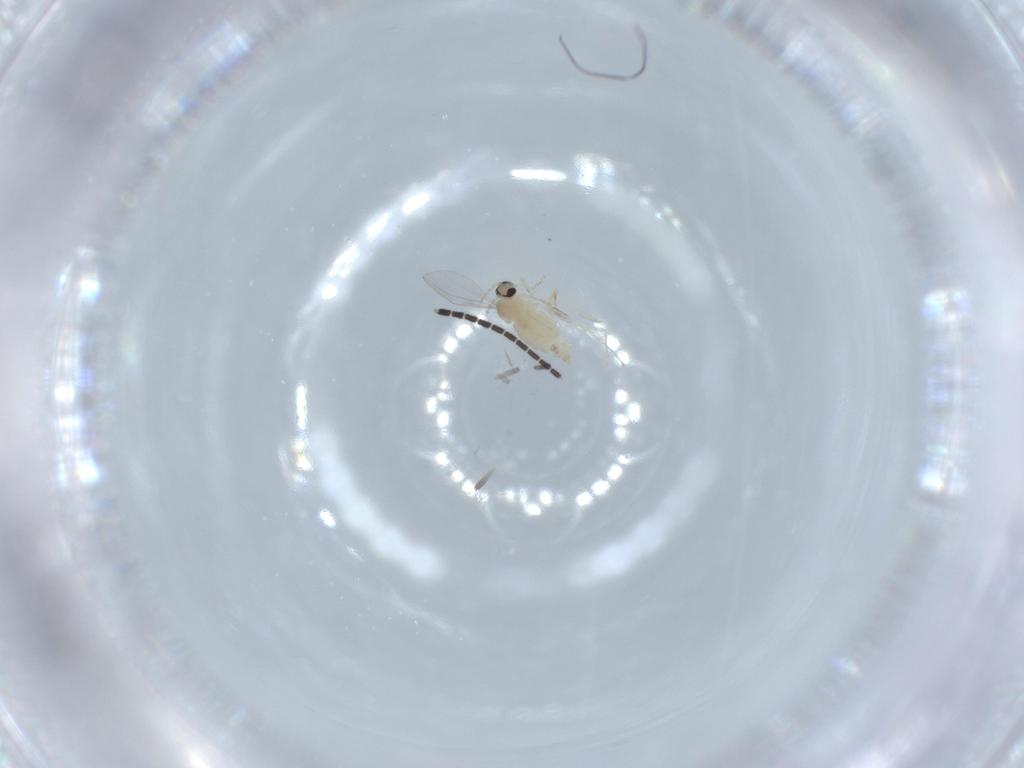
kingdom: Animalia
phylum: Arthropoda
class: Insecta
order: Diptera
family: Cecidomyiidae
